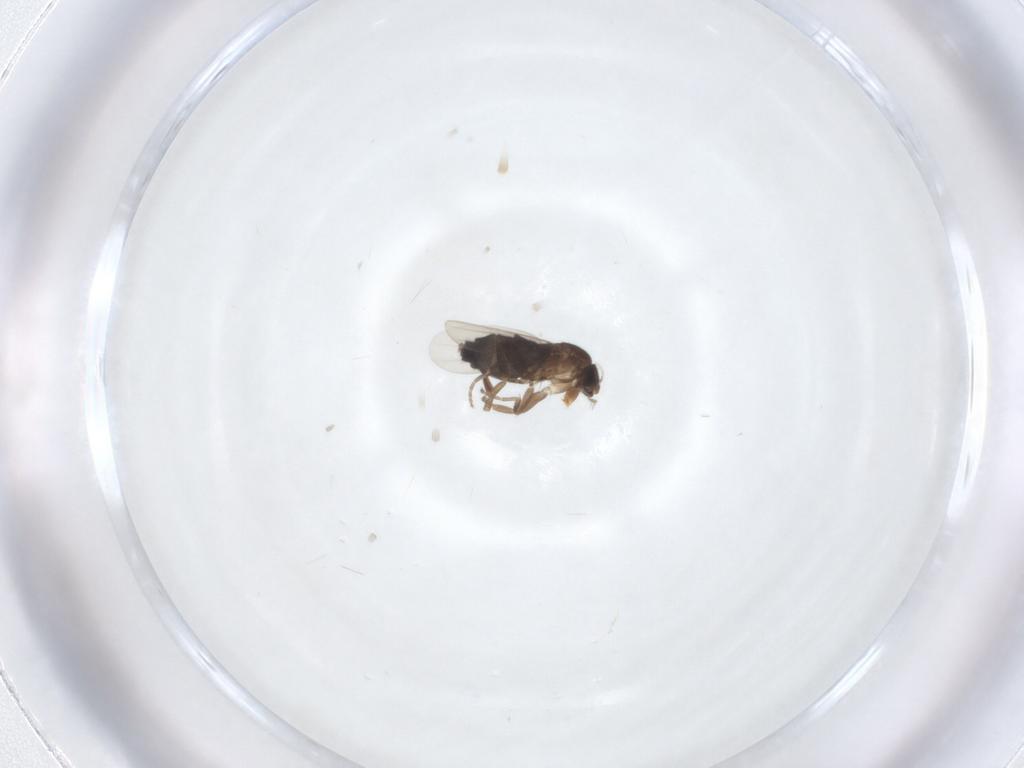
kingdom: Animalia
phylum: Arthropoda
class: Insecta
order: Diptera
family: Phoridae
